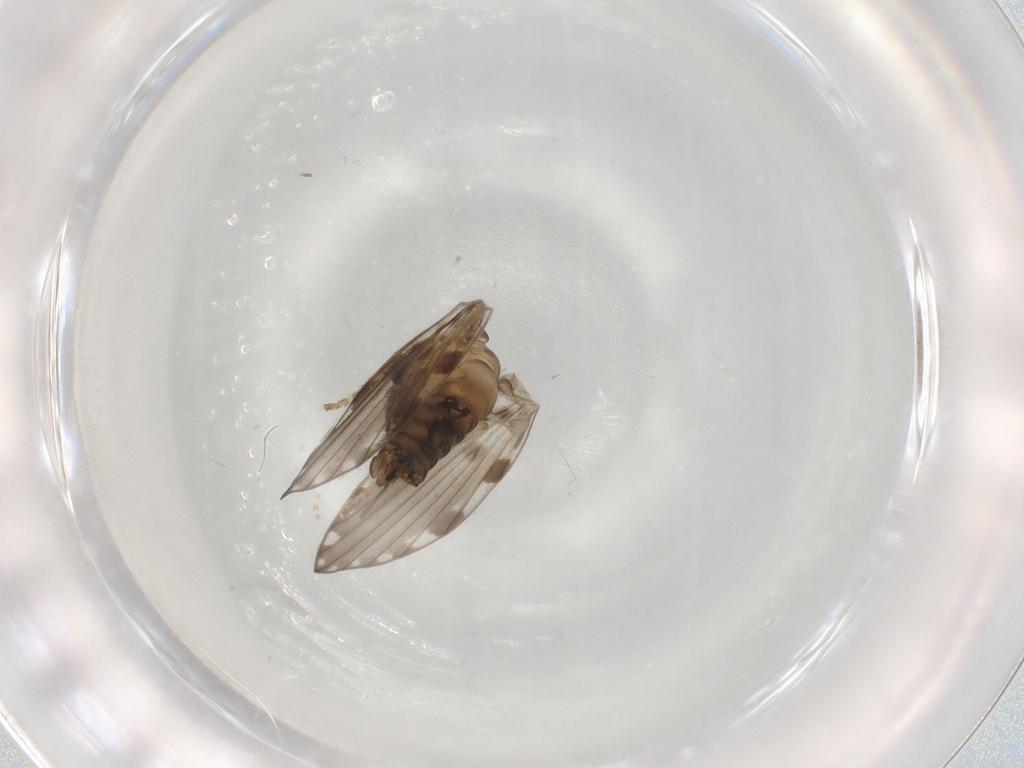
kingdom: Animalia
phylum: Arthropoda
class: Insecta
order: Diptera
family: Psychodidae
